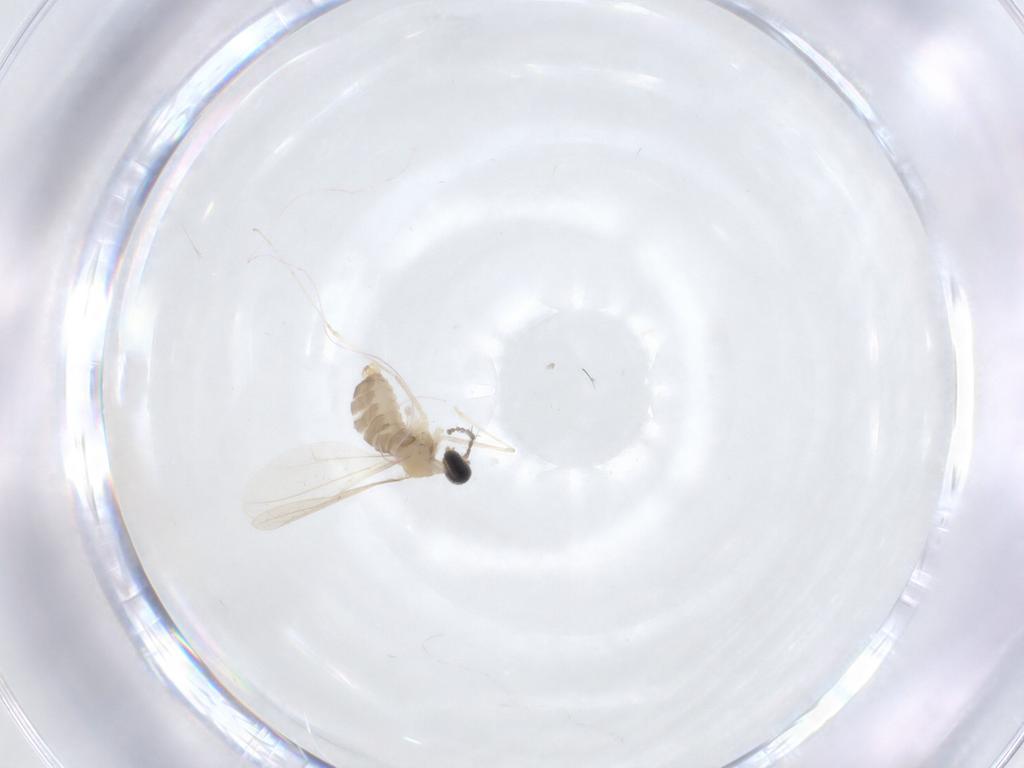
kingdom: Animalia
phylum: Arthropoda
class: Insecta
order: Diptera
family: Cecidomyiidae
